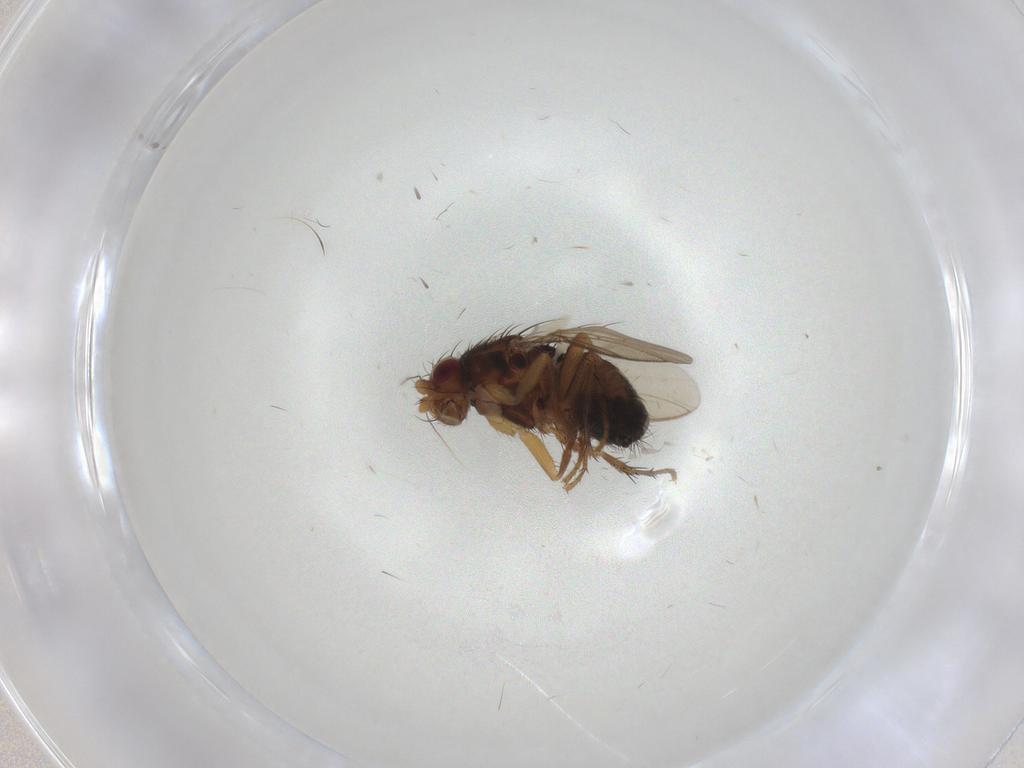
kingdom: Animalia
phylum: Arthropoda
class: Insecta
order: Diptera
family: Sphaeroceridae
